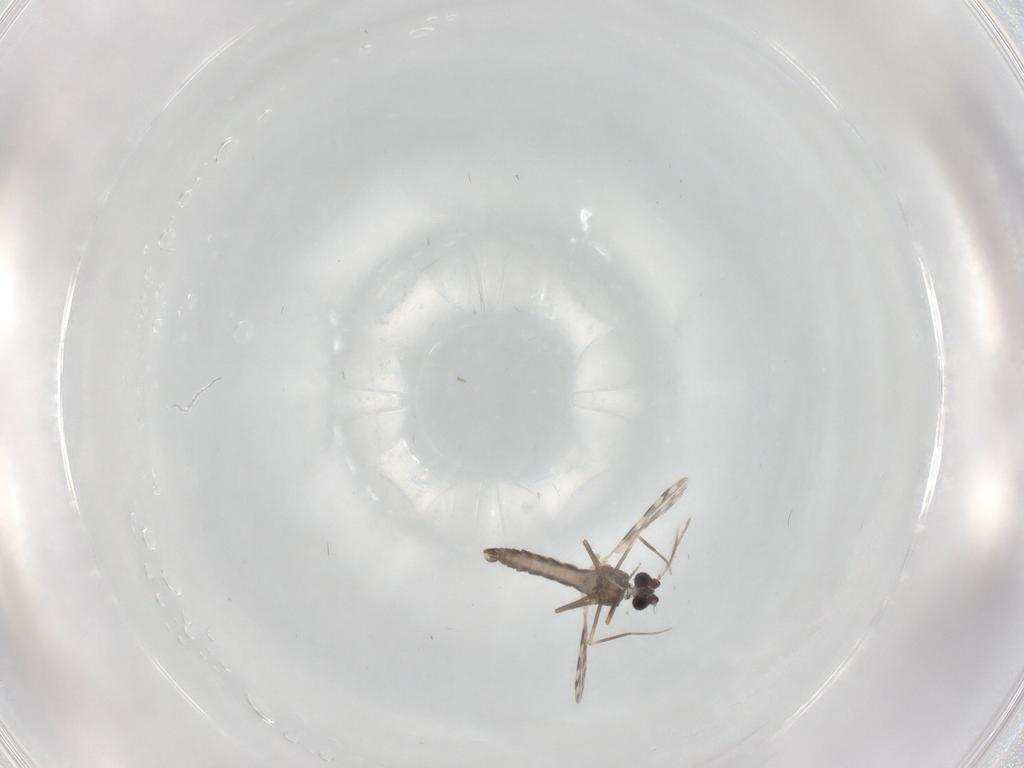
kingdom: Animalia
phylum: Arthropoda
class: Insecta
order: Diptera
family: Ceratopogonidae
